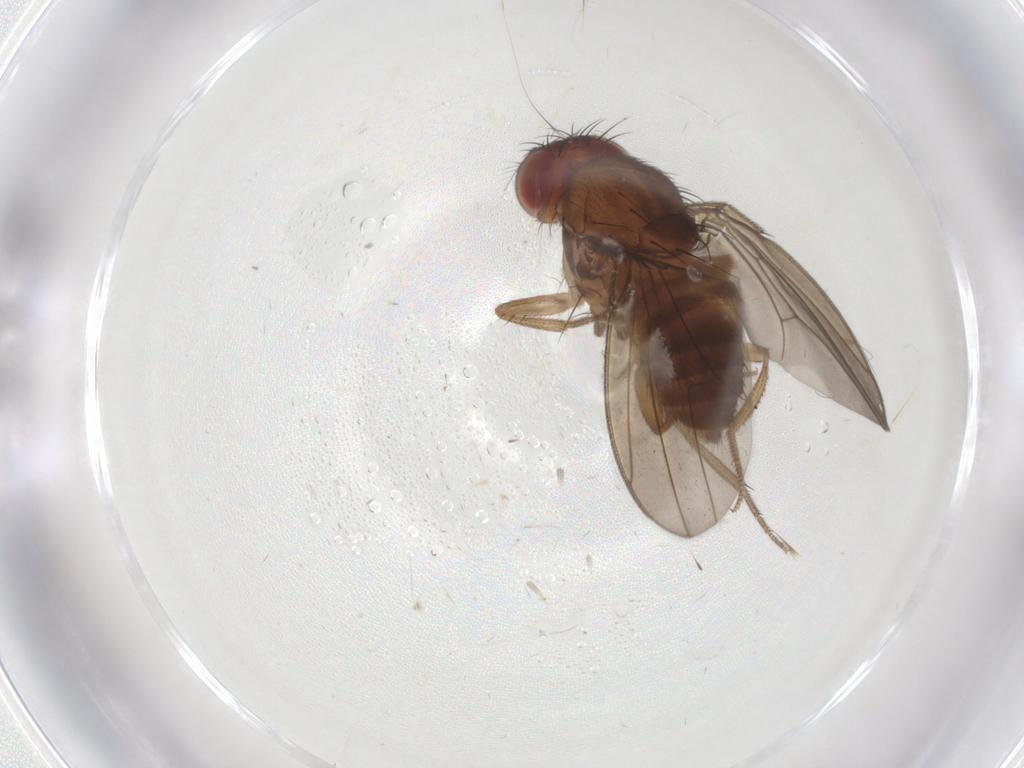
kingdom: Animalia
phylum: Arthropoda
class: Insecta
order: Diptera
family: Drosophilidae
